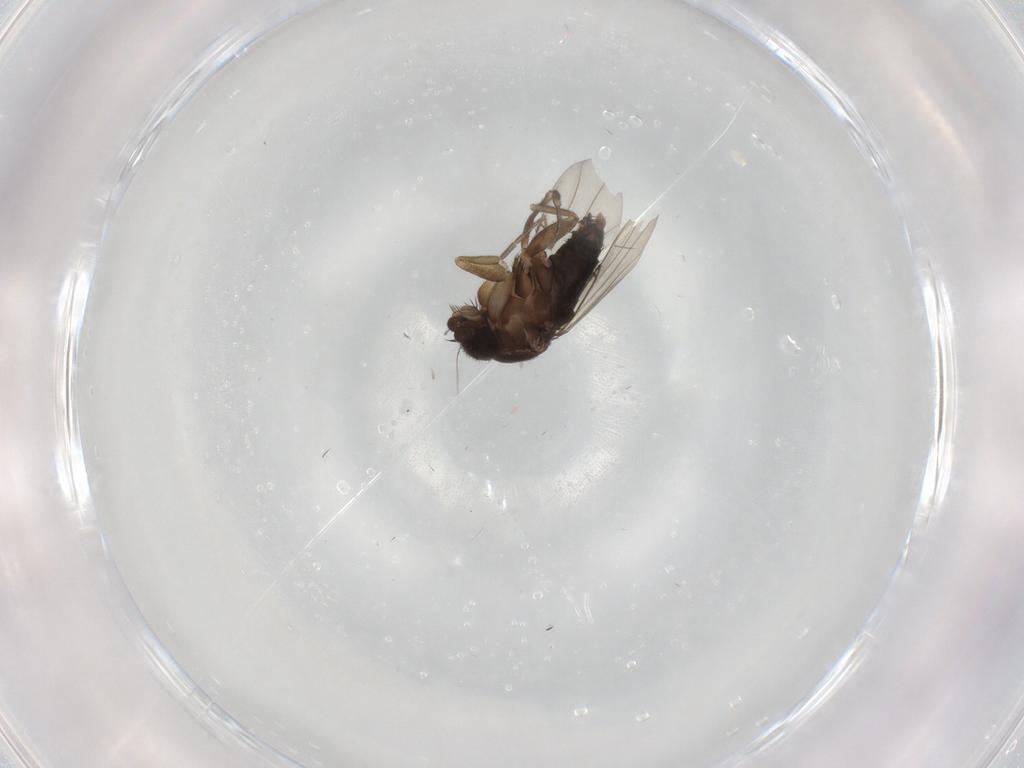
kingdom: Animalia
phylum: Arthropoda
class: Insecta
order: Diptera
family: Phoridae
